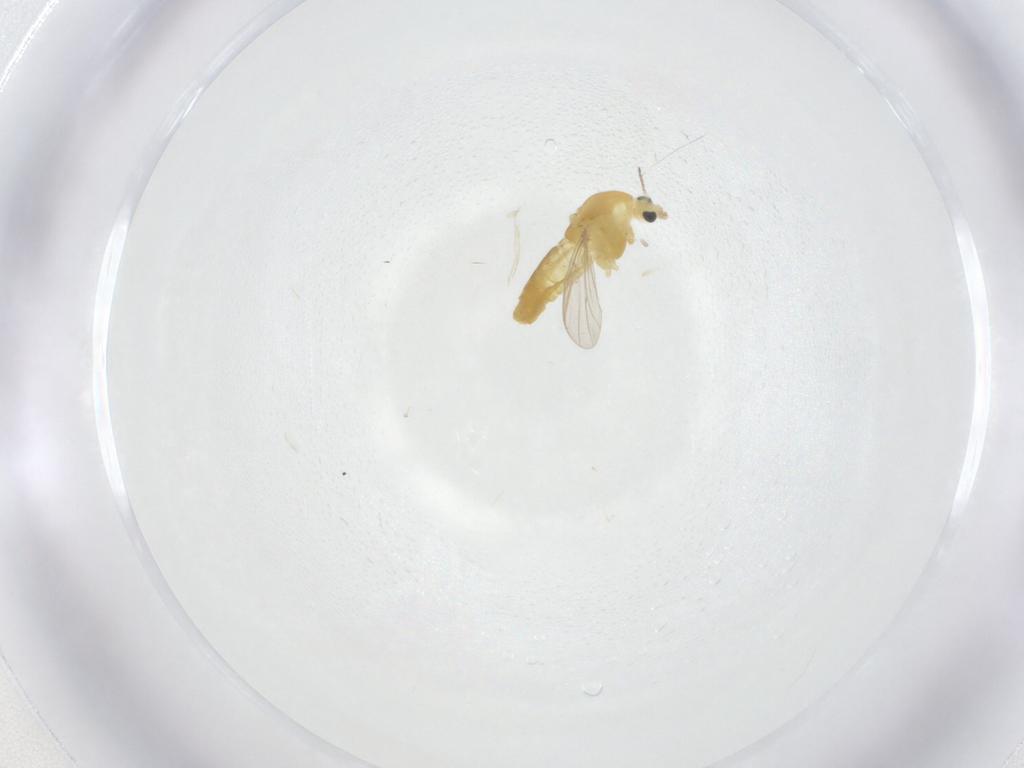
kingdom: Animalia
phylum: Arthropoda
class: Insecta
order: Diptera
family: Chironomidae
